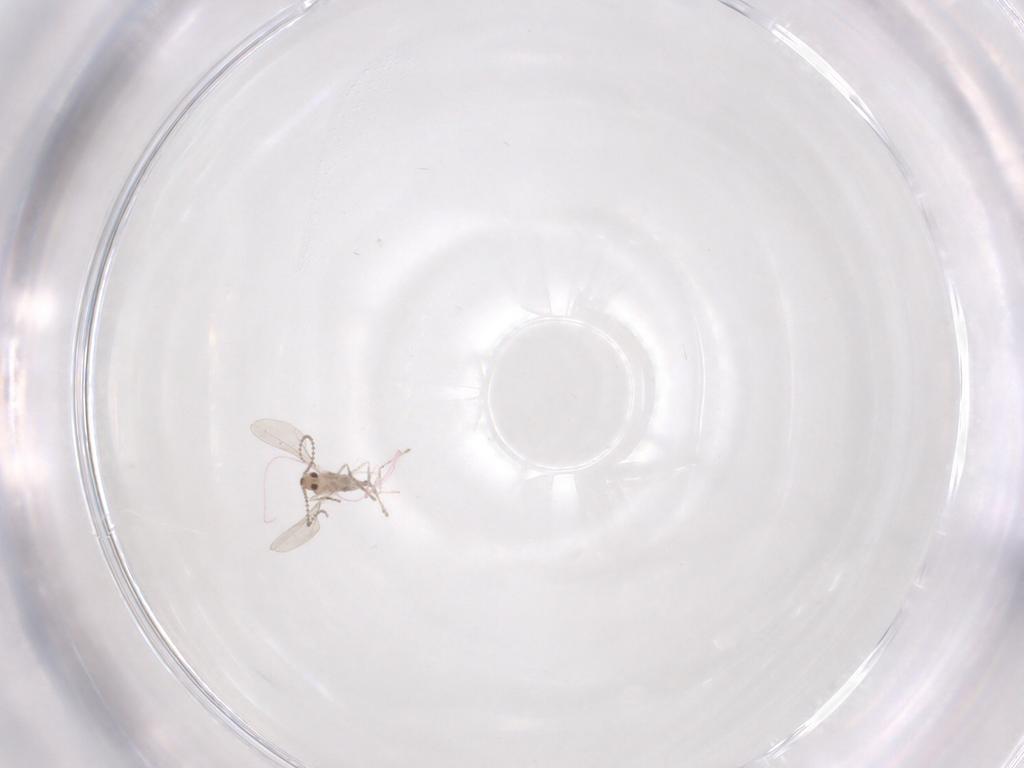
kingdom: Animalia
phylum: Arthropoda
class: Insecta
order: Diptera
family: Cecidomyiidae
